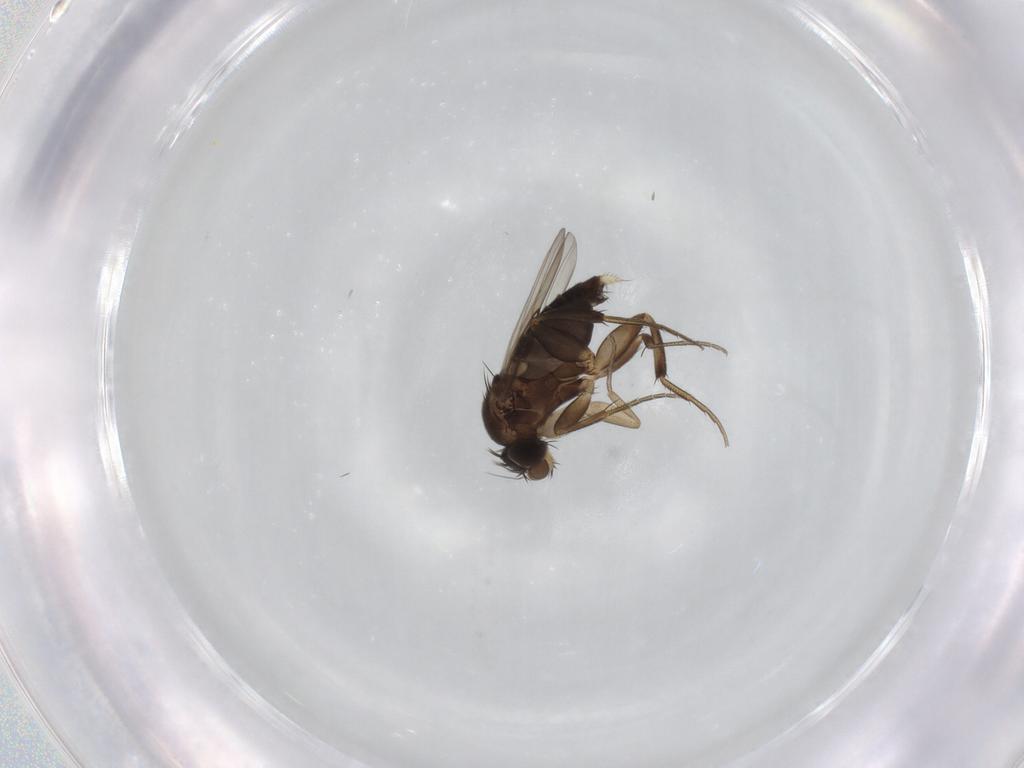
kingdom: Animalia
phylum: Arthropoda
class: Insecta
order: Diptera
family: Phoridae
